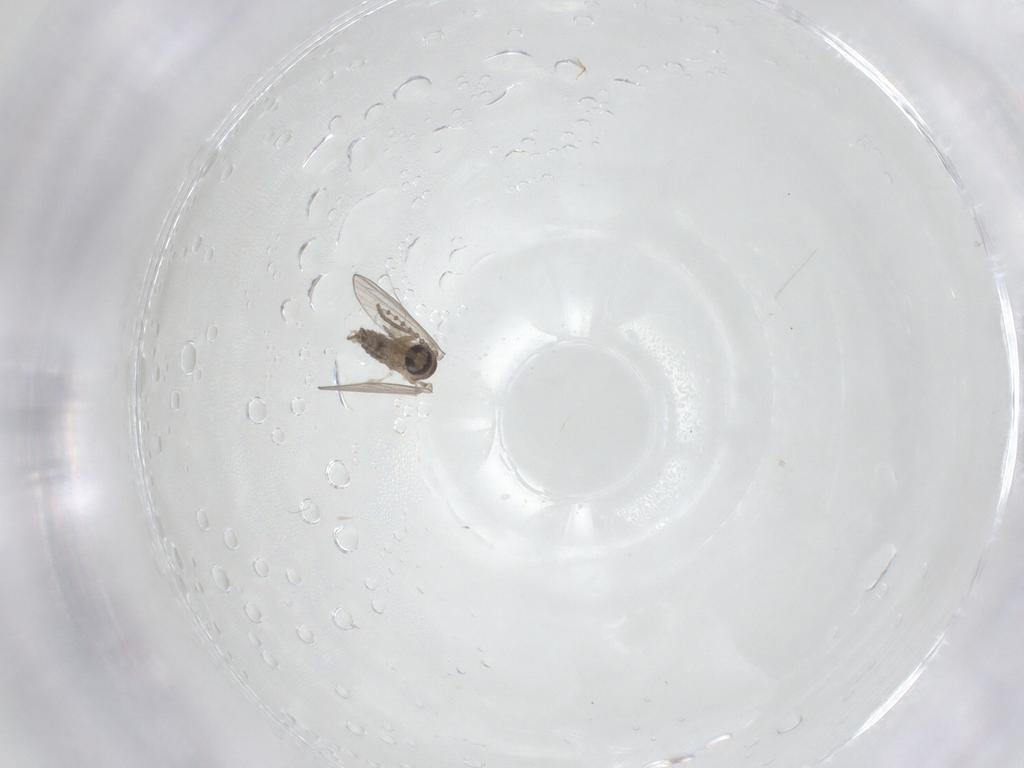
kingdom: Animalia
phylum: Arthropoda
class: Insecta
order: Diptera
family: Psychodidae
